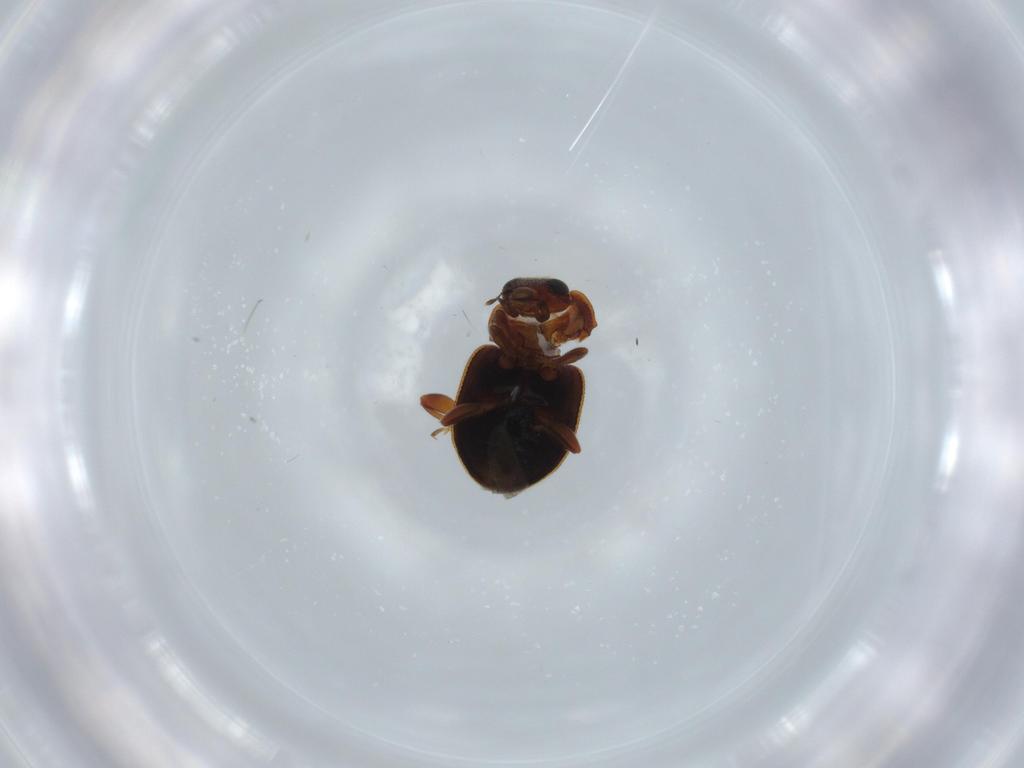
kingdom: Animalia
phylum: Arthropoda
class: Insecta
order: Coleoptera
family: Coccinellidae
